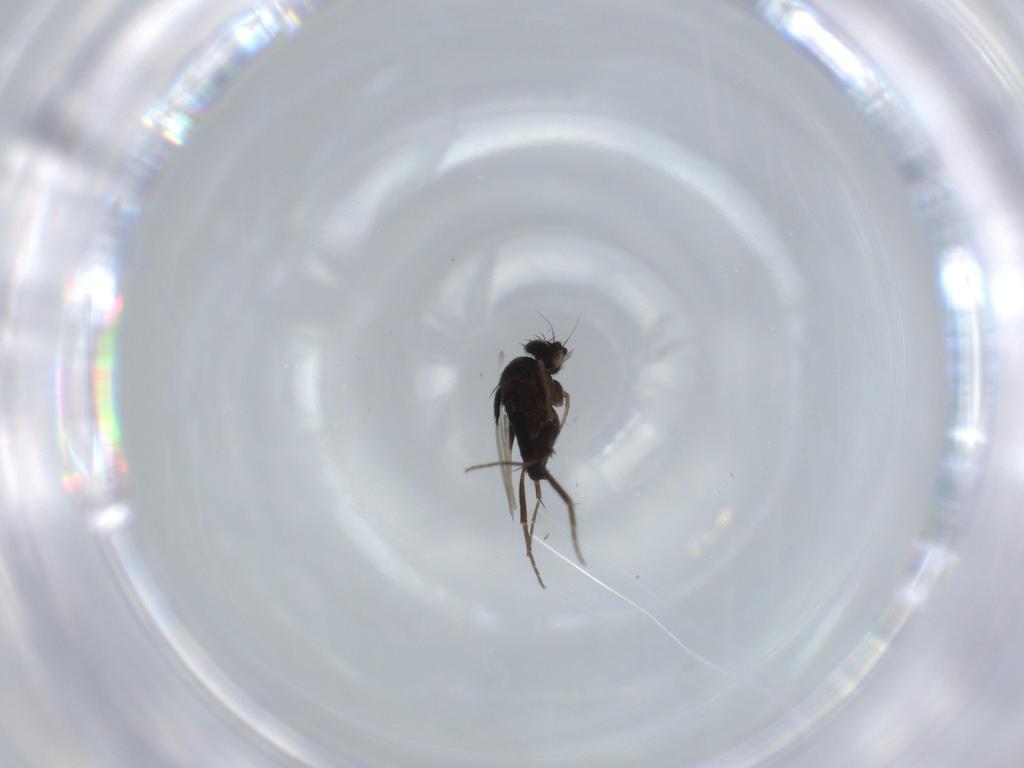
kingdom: Animalia
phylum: Arthropoda
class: Insecta
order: Diptera
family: Phoridae
